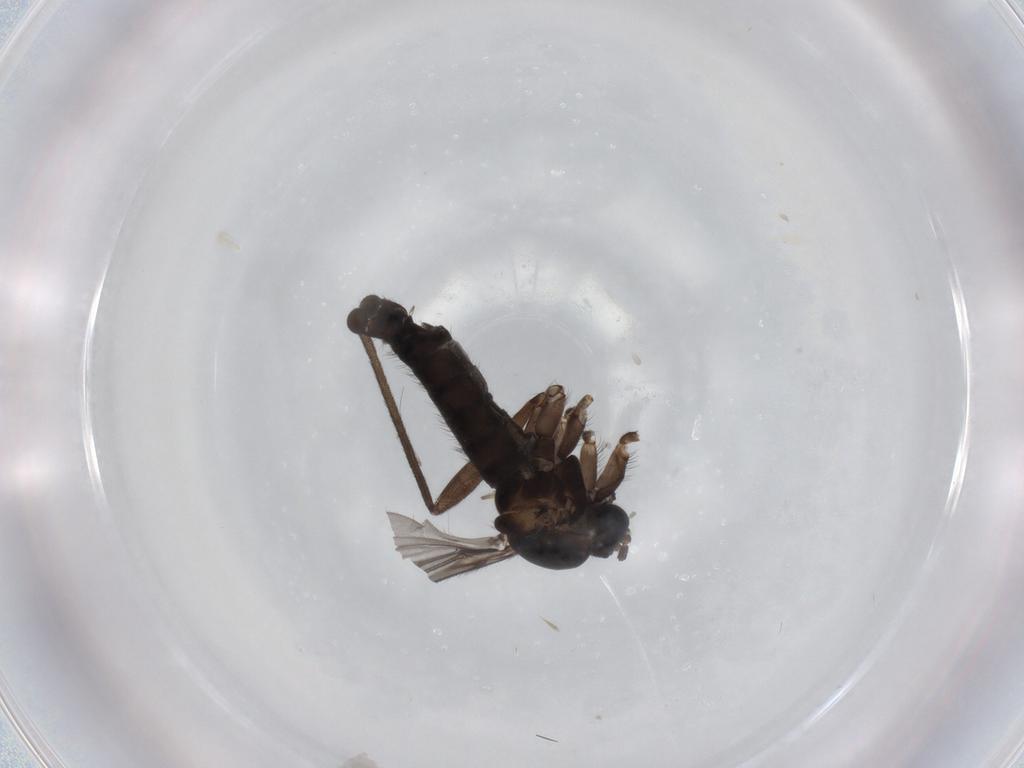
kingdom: Animalia
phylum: Arthropoda
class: Insecta
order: Diptera
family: Sciaridae
